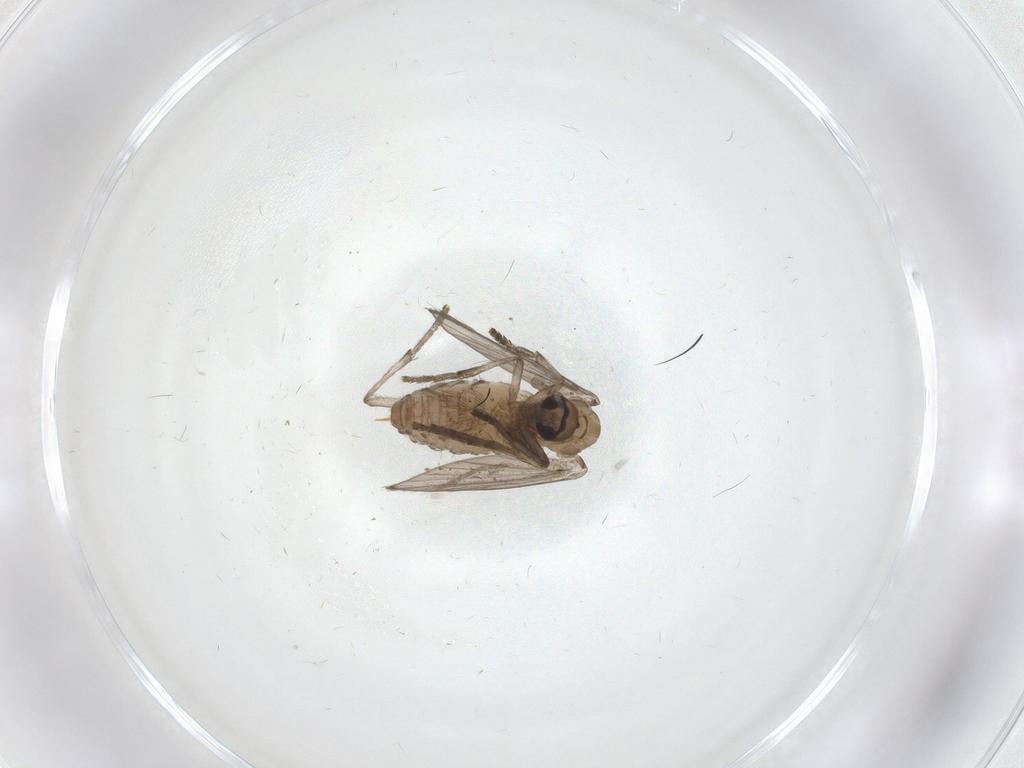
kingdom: Animalia
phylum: Arthropoda
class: Insecta
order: Diptera
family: Psychodidae
